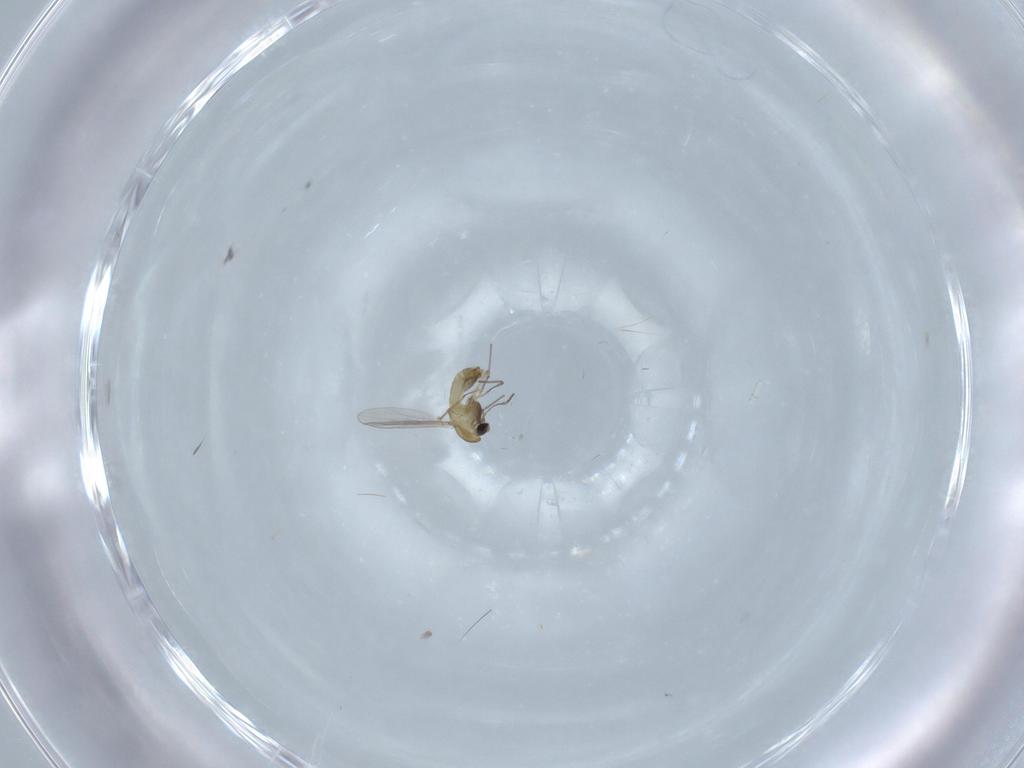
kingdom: Animalia
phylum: Arthropoda
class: Insecta
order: Diptera
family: Chironomidae
